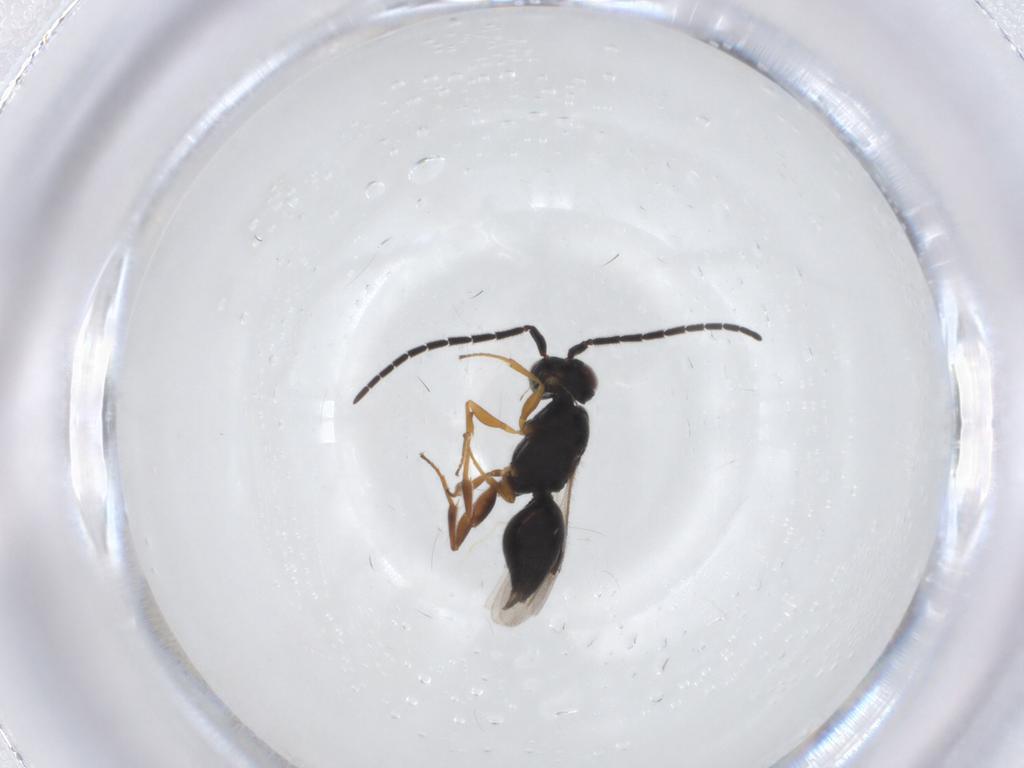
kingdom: Animalia
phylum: Arthropoda
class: Insecta
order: Hymenoptera
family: Megaspilidae
